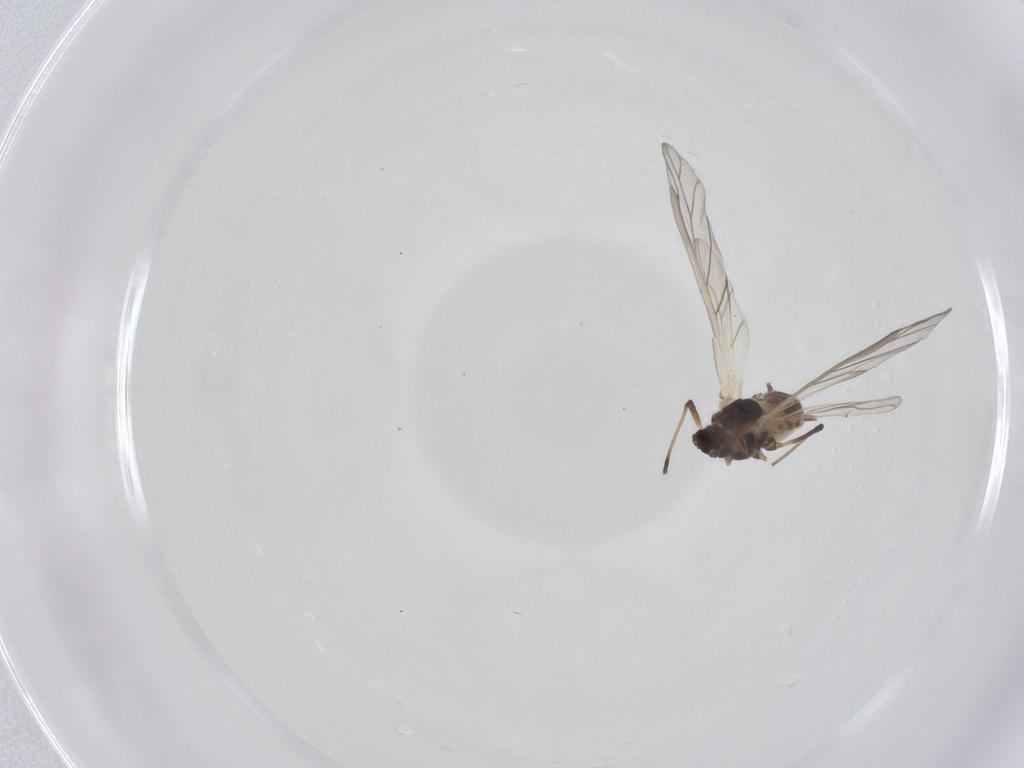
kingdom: Animalia
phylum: Arthropoda
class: Insecta
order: Hemiptera
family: Aphididae
